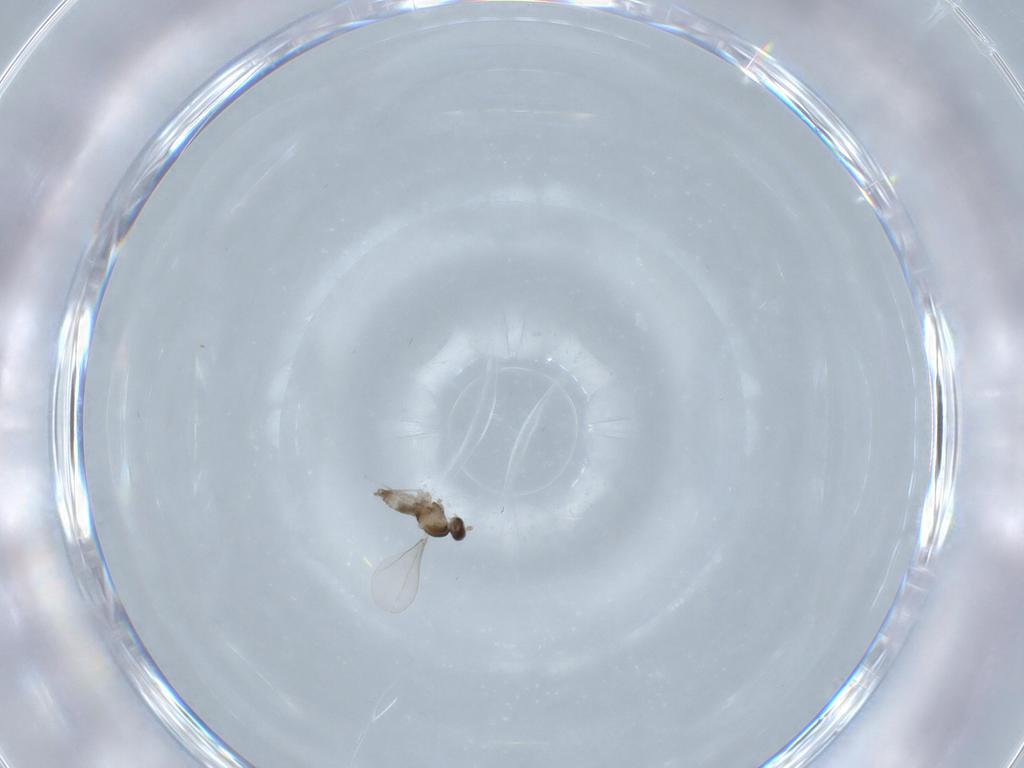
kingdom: Animalia
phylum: Arthropoda
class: Insecta
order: Diptera
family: Cecidomyiidae
